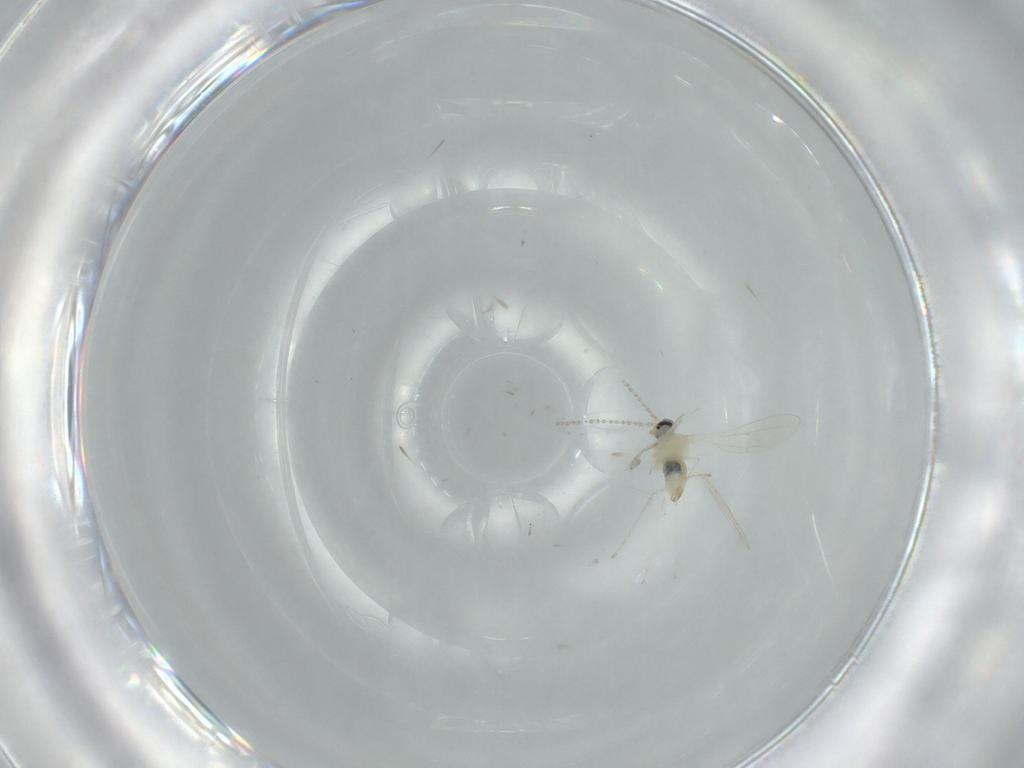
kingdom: Animalia
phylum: Arthropoda
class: Insecta
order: Diptera
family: Cecidomyiidae
